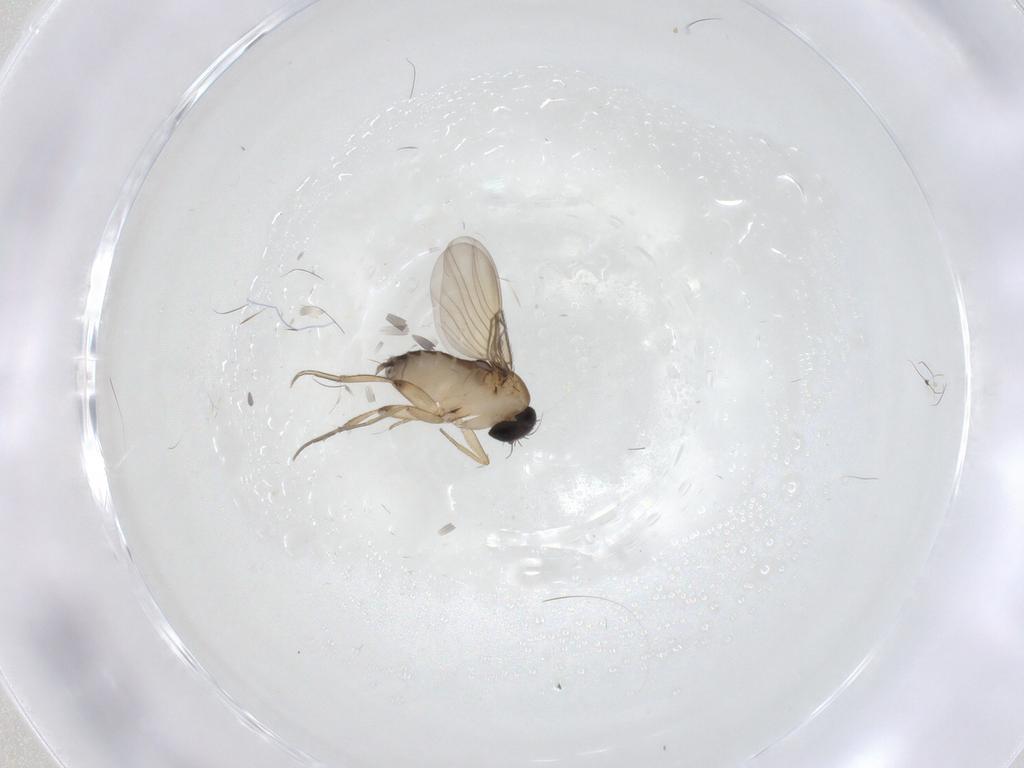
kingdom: Animalia
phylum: Arthropoda
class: Insecta
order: Diptera
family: Phoridae
